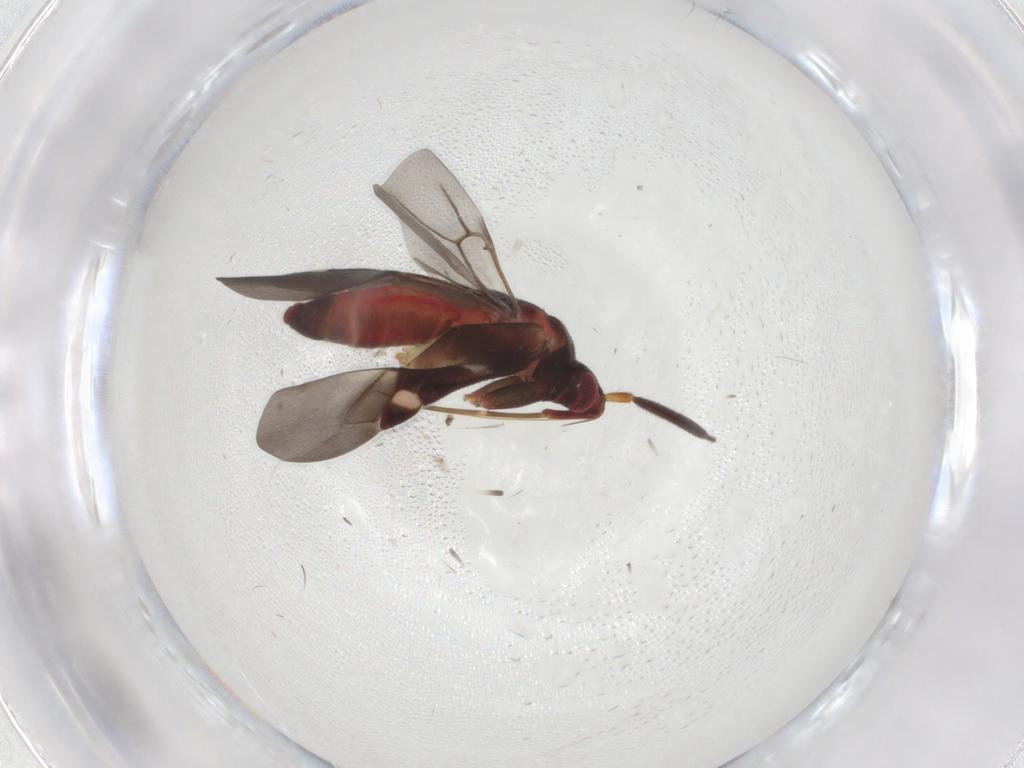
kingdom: Animalia
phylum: Arthropoda
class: Insecta
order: Hemiptera
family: Miridae
